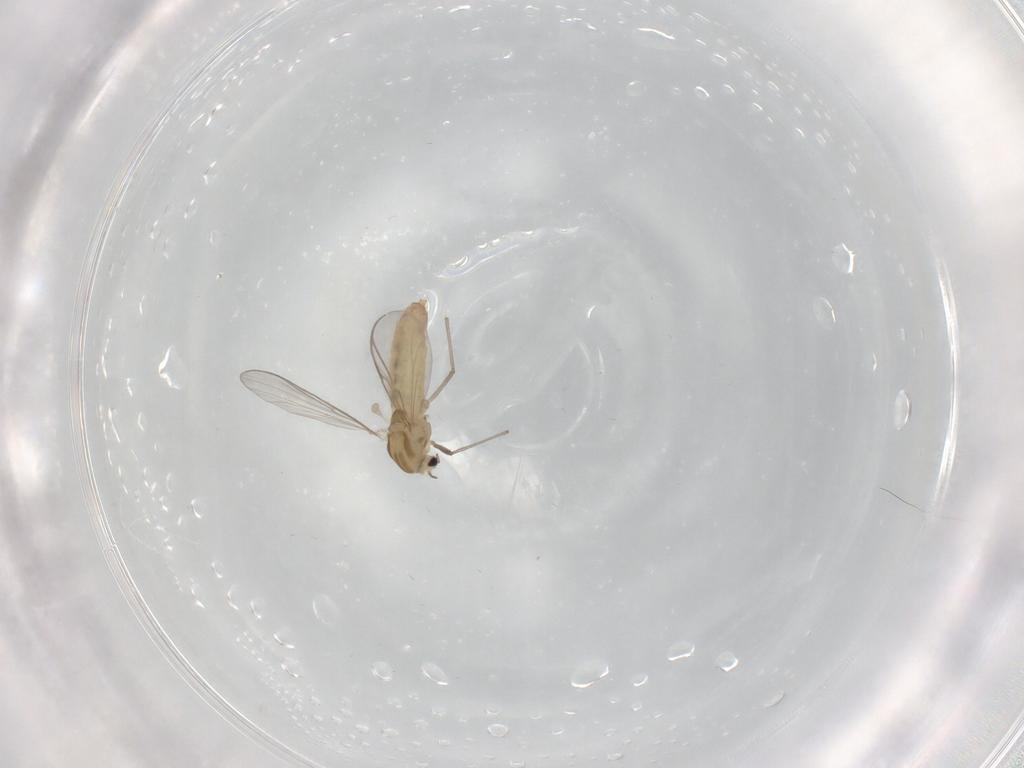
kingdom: Animalia
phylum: Arthropoda
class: Insecta
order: Diptera
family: Chironomidae
